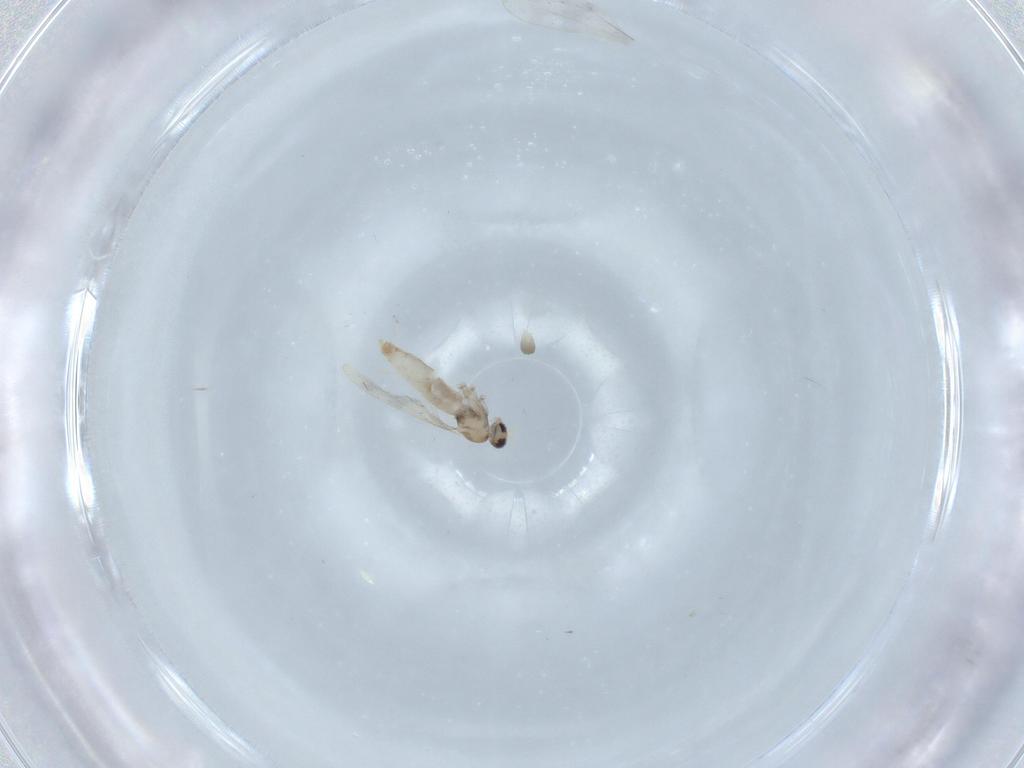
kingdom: Animalia
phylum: Arthropoda
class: Insecta
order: Diptera
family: Cecidomyiidae
